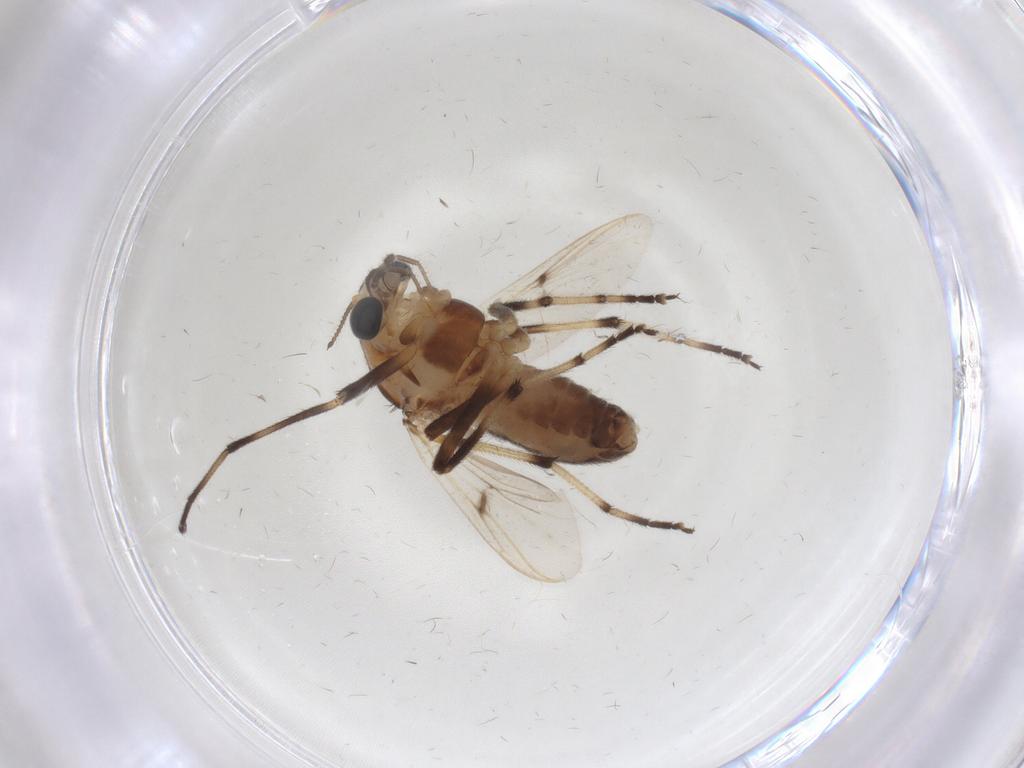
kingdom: Animalia
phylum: Arthropoda
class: Insecta
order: Diptera
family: Chironomidae
